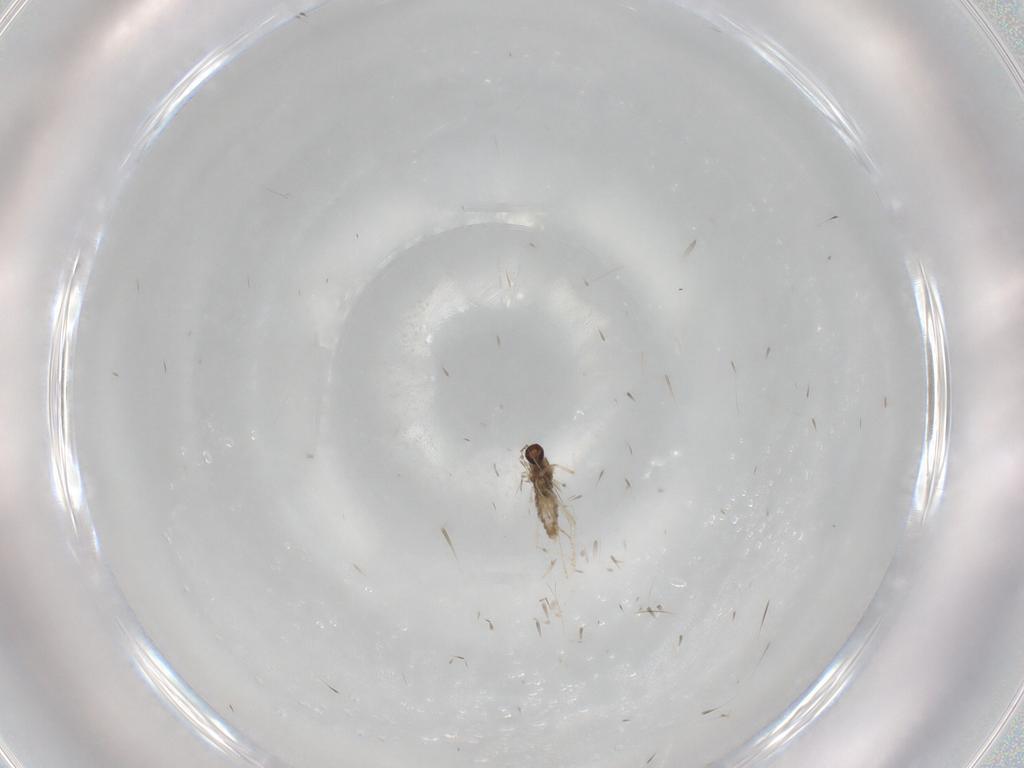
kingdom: Animalia
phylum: Arthropoda
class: Insecta
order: Diptera
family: Cecidomyiidae
